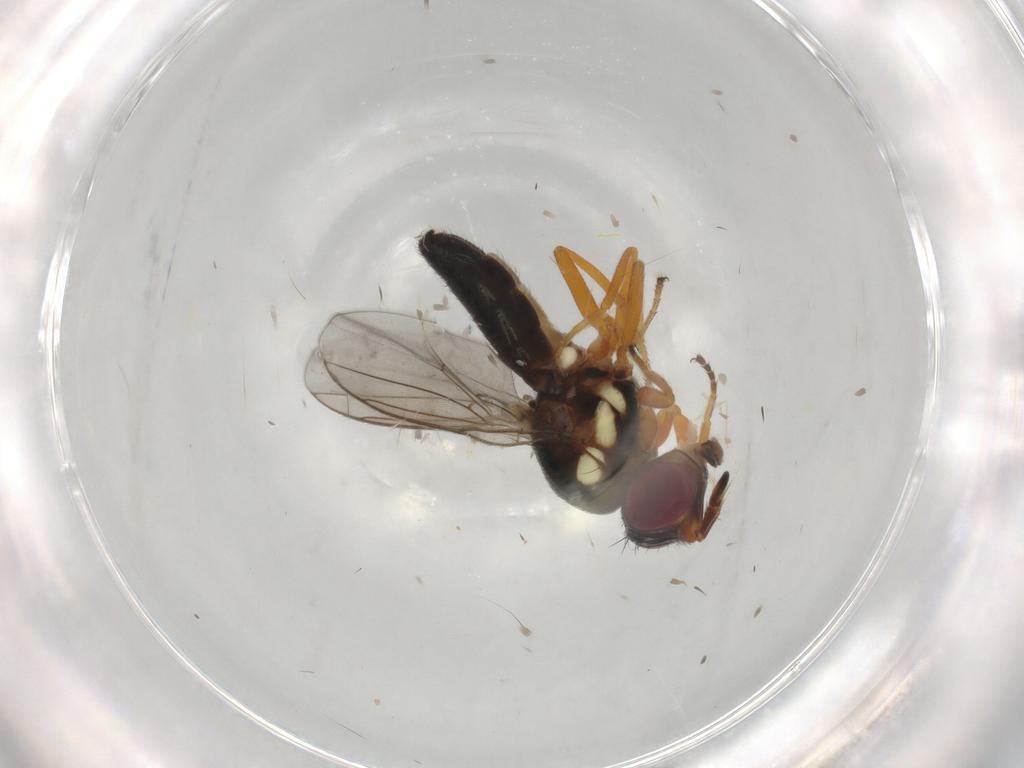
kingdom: Animalia
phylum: Arthropoda
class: Insecta
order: Diptera
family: Chloropidae
